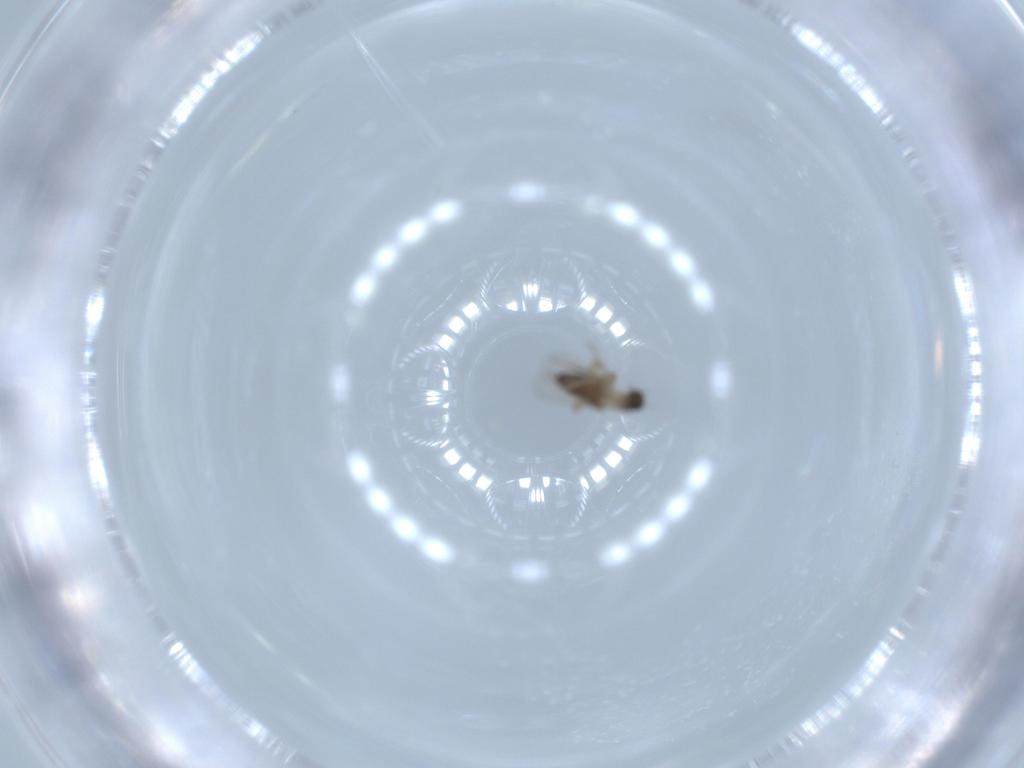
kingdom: Animalia
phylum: Arthropoda
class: Insecta
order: Diptera
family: Phoridae
